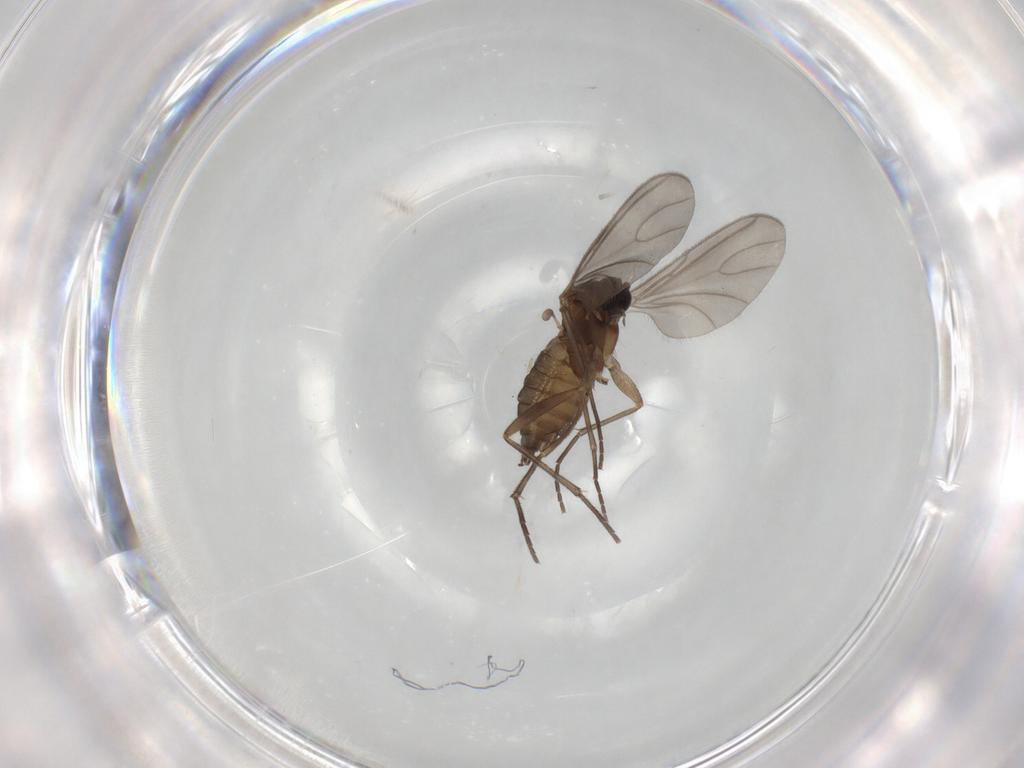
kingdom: Animalia
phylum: Arthropoda
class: Insecta
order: Diptera
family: Sciaridae
